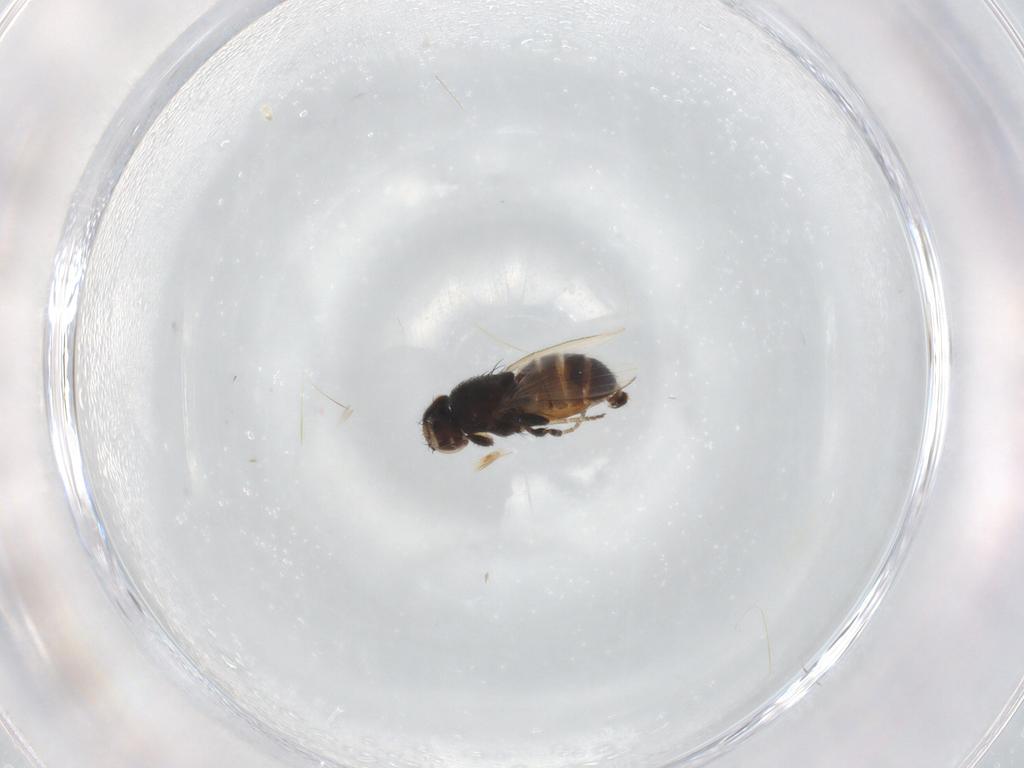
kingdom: Animalia
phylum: Arthropoda
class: Insecta
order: Diptera
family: Milichiidae
